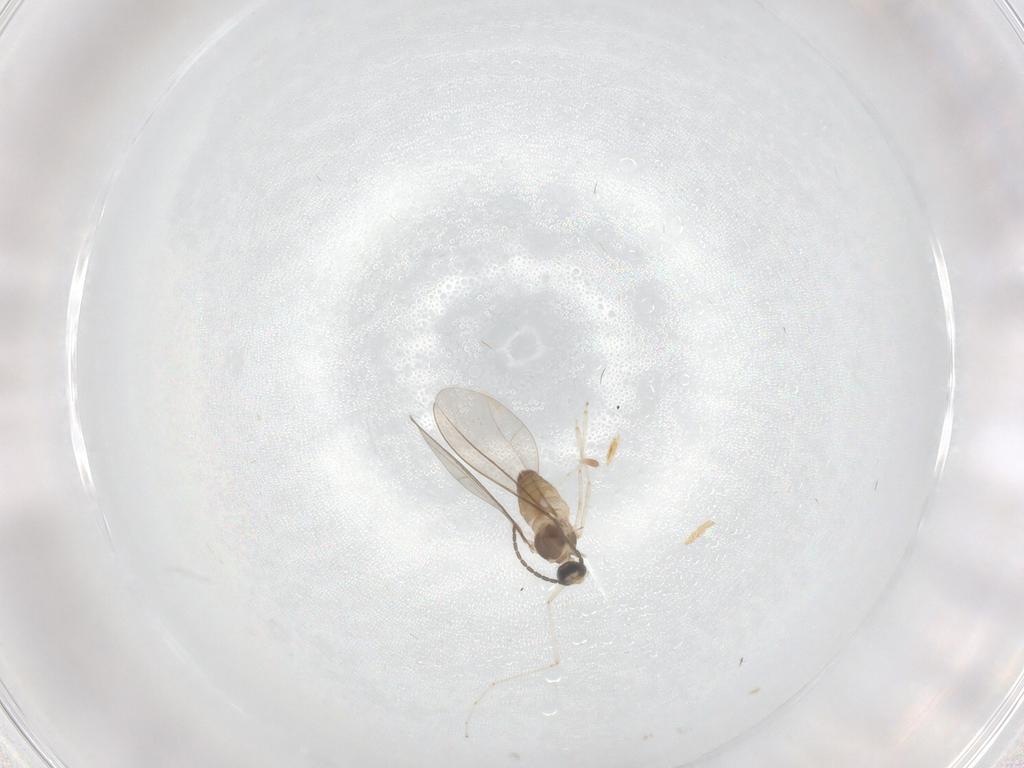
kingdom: Animalia
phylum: Arthropoda
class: Insecta
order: Diptera
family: Cecidomyiidae
